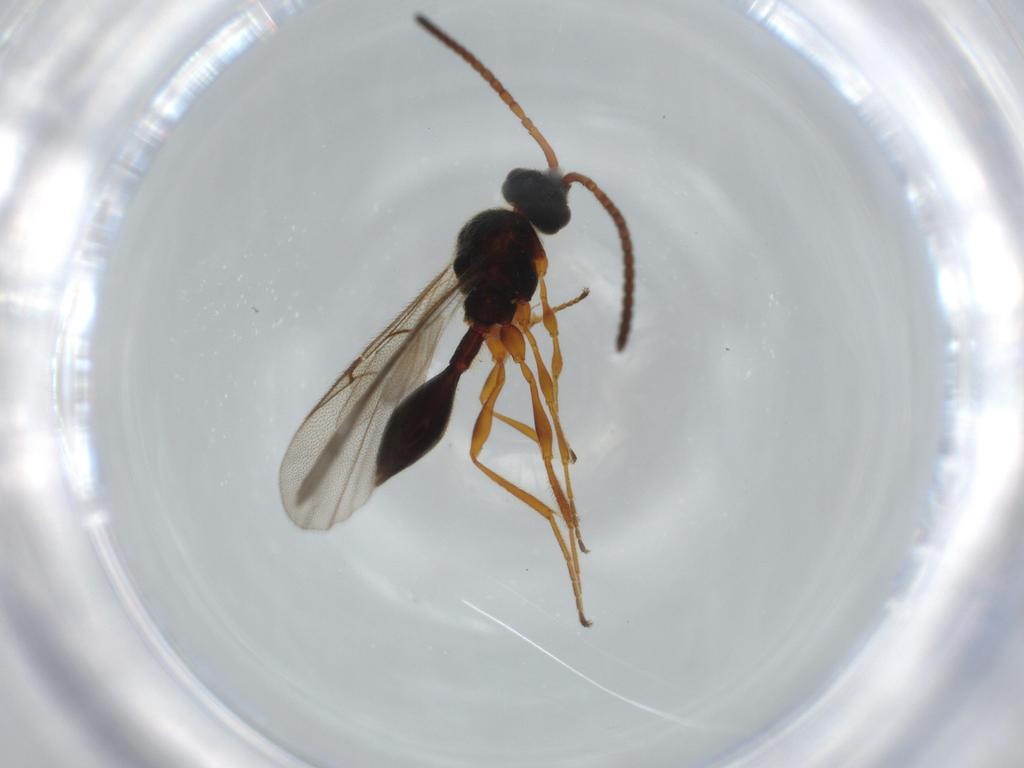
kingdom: Animalia
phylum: Arthropoda
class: Insecta
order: Hymenoptera
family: Diapriidae
